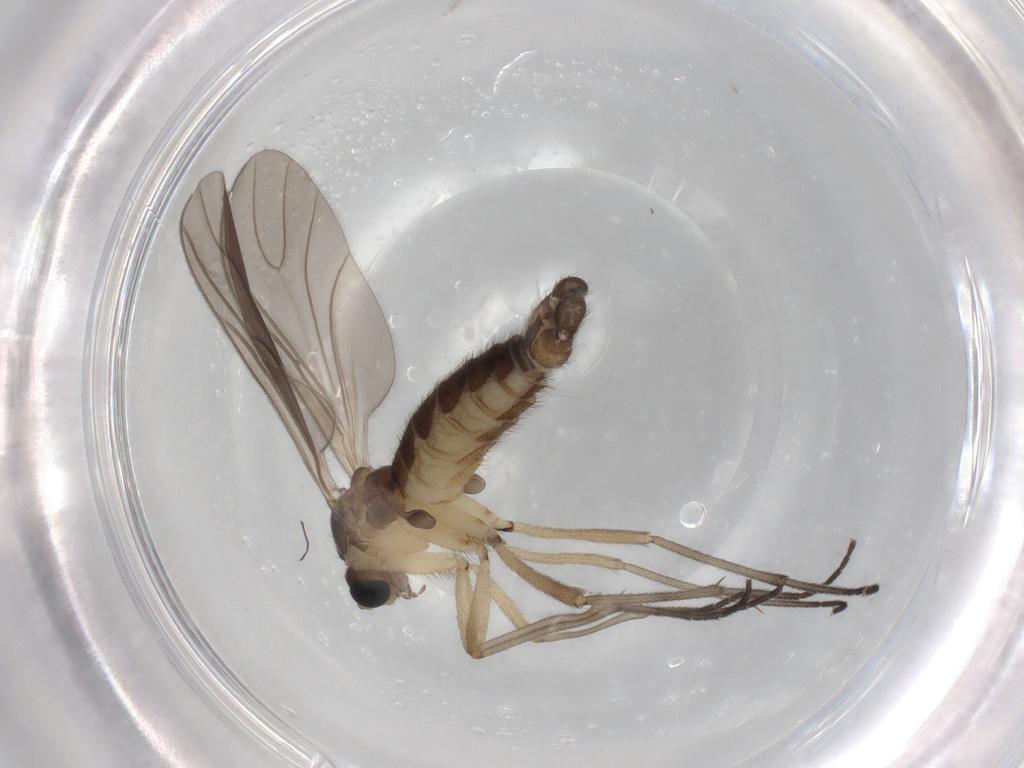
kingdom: Animalia
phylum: Arthropoda
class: Insecta
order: Diptera
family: Sciaridae
